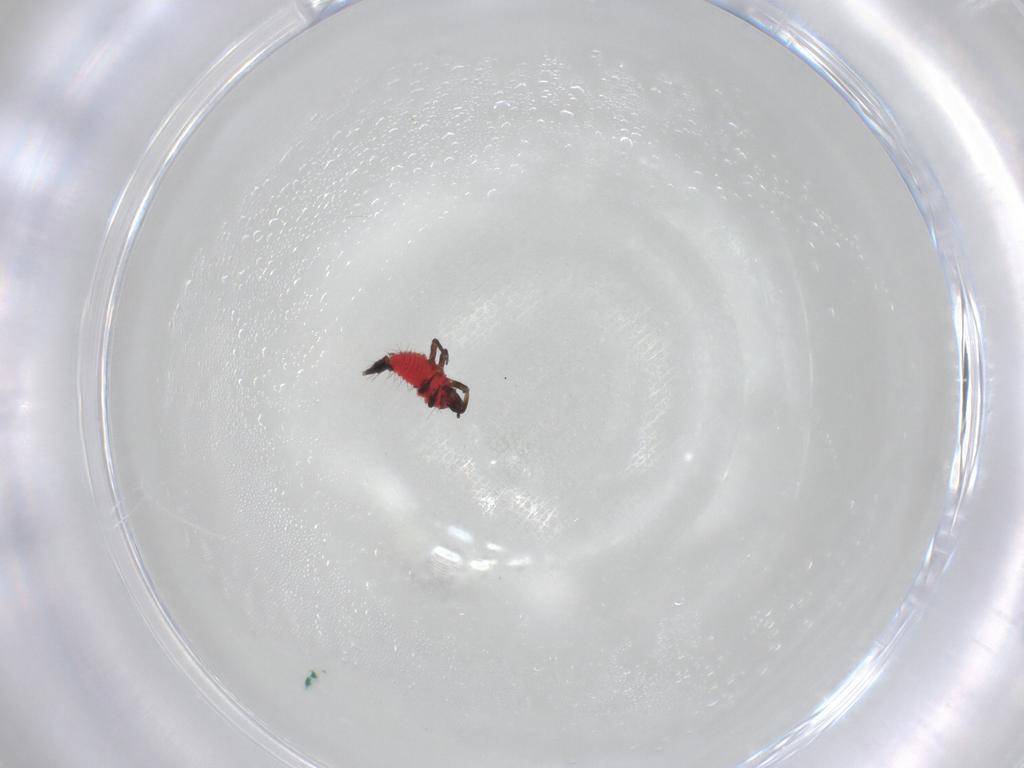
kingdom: Animalia
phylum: Arthropoda
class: Insecta
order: Thysanoptera
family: Phlaeothripidae
